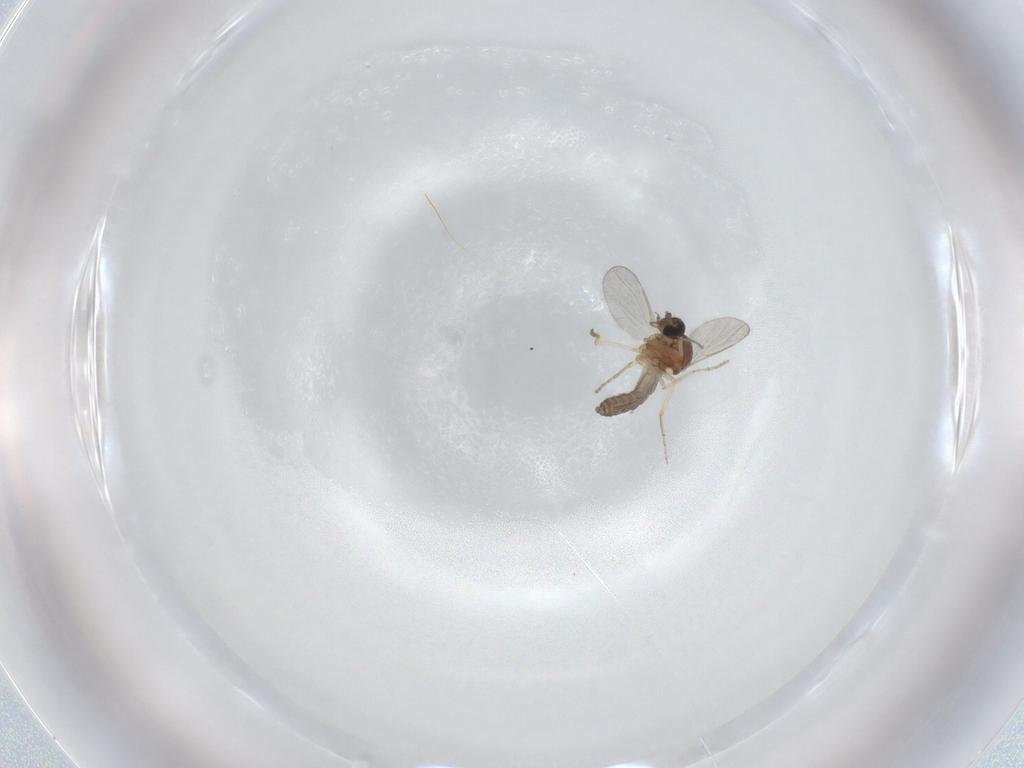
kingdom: Animalia
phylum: Arthropoda
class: Insecta
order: Diptera
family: Ceratopogonidae
